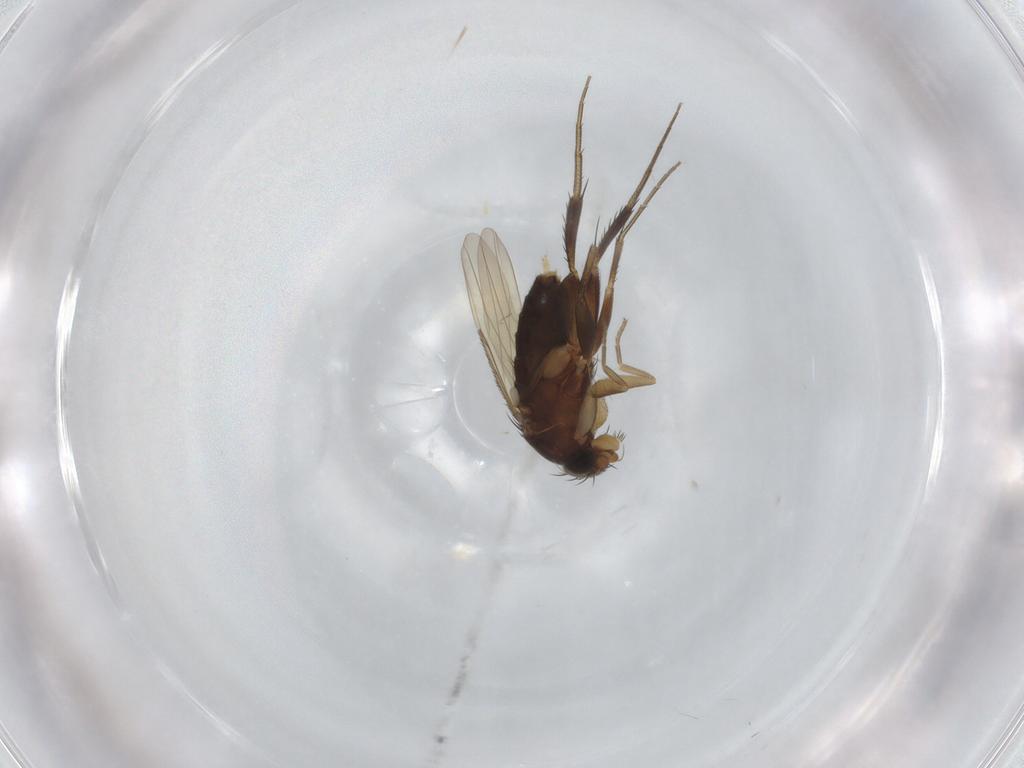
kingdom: Animalia
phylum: Arthropoda
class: Insecta
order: Diptera
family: Phoridae
